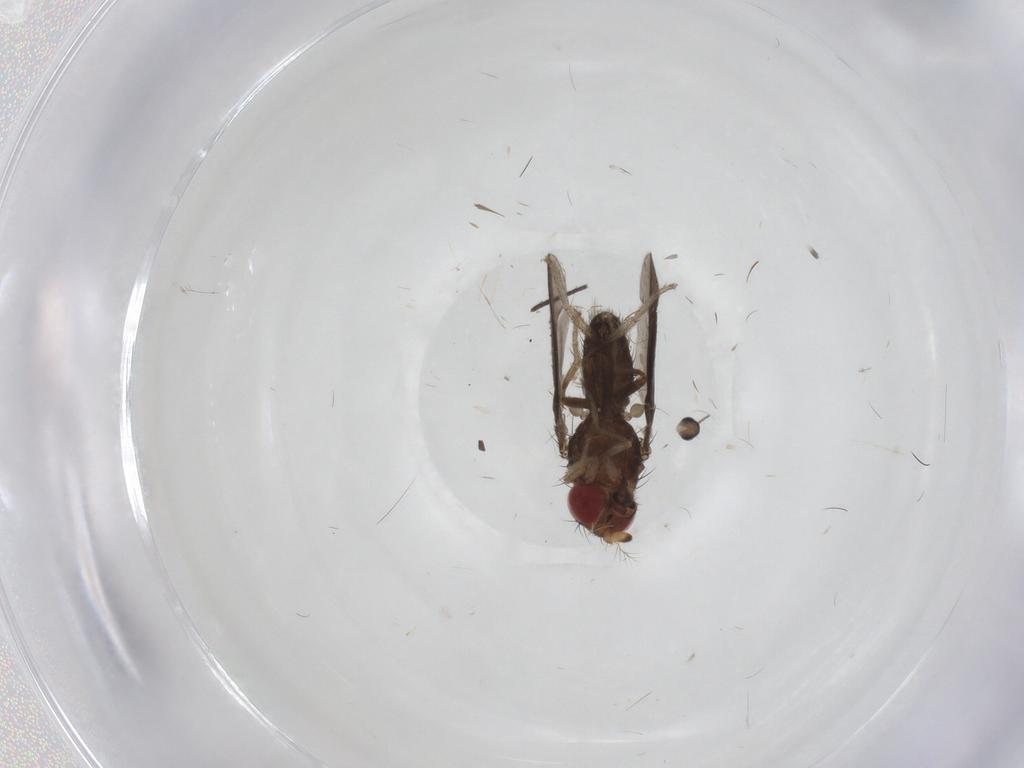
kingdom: Animalia
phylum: Arthropoda
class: Insecta
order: Diptera
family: Sciaridae
